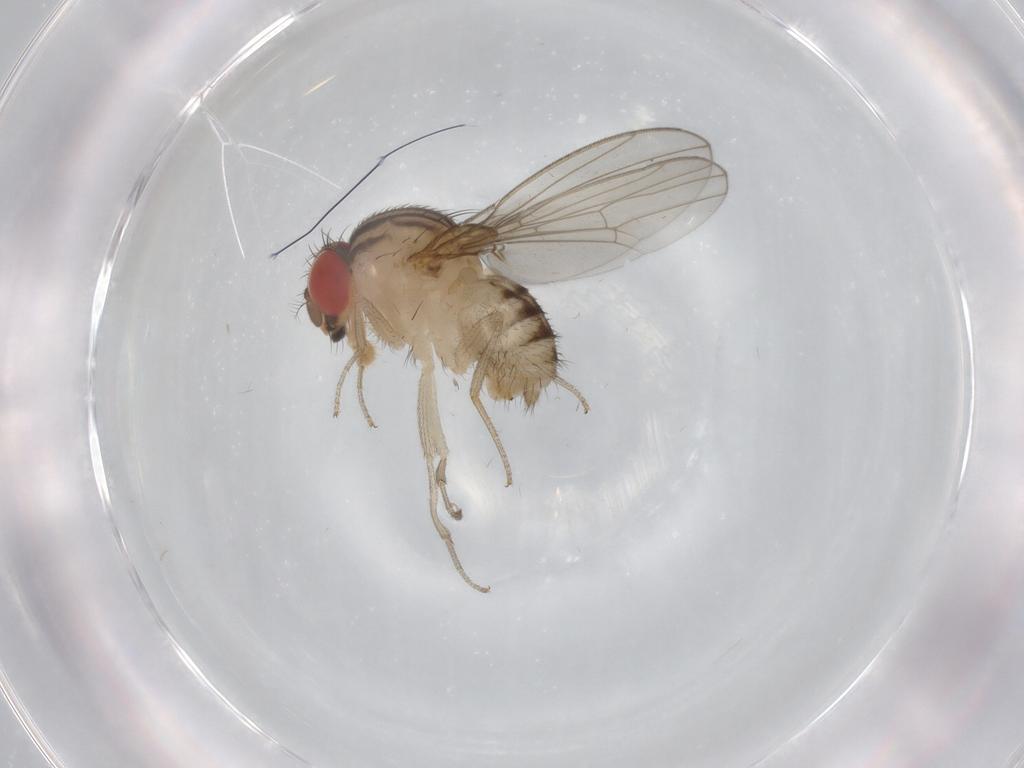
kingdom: Animalia
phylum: Arthropoda
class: Insecta
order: Diptera
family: Drosophilidae
